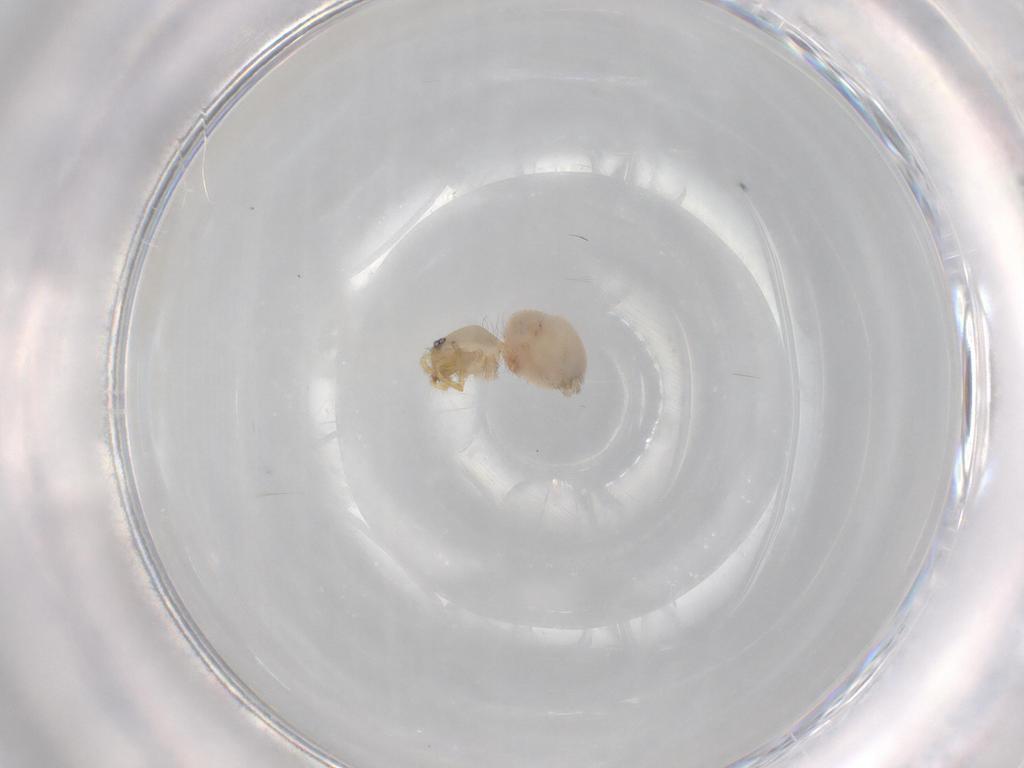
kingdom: Animalia
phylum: Arthropoda
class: Arachnida
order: Araneae
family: Oonopidae
